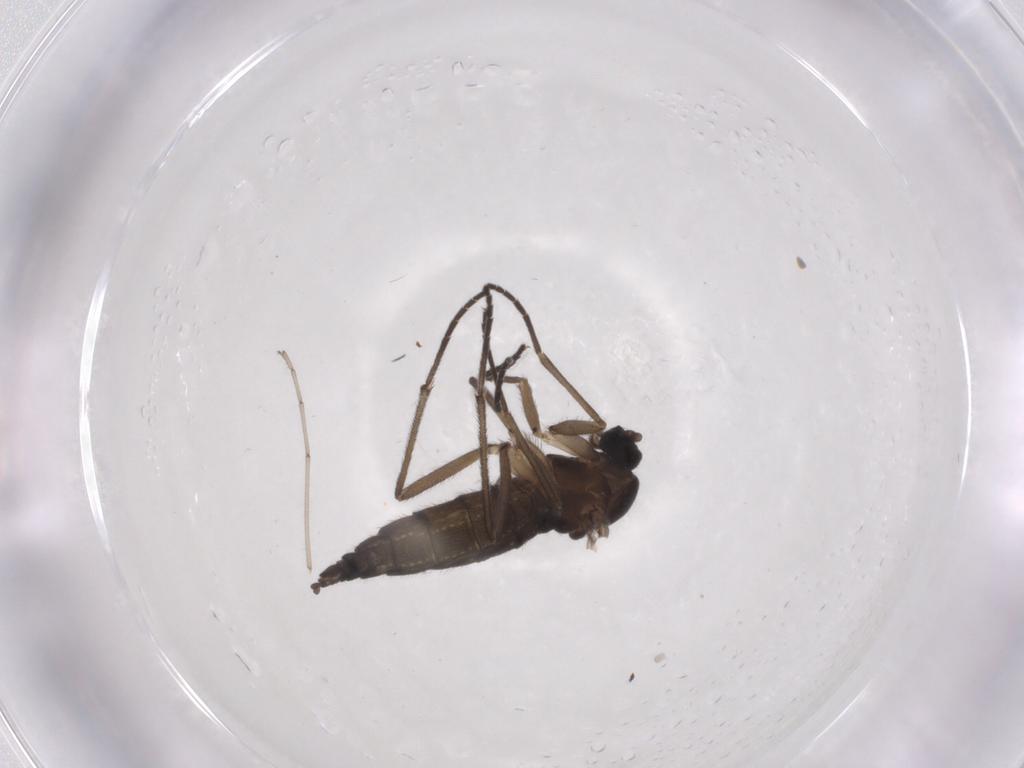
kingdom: Animalia
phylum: Arthropoda
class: Insecta
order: Diptera
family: Sciaridae
